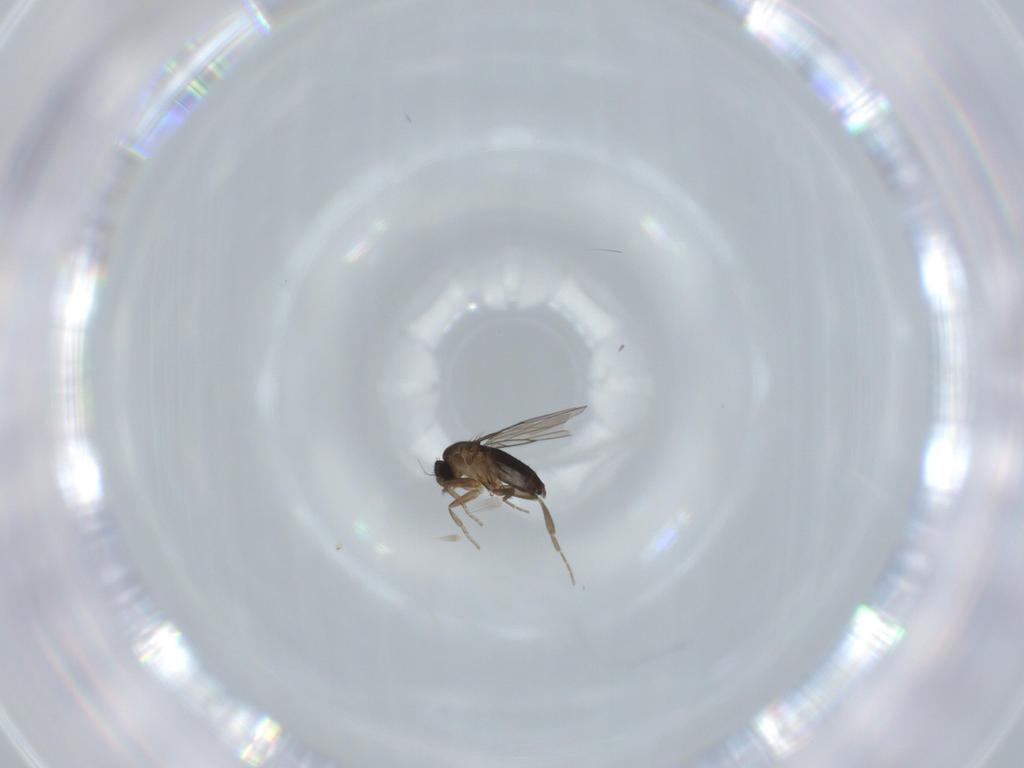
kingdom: Animalia
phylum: Arthropoda
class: Insecta
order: Diptera
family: Phoridae
